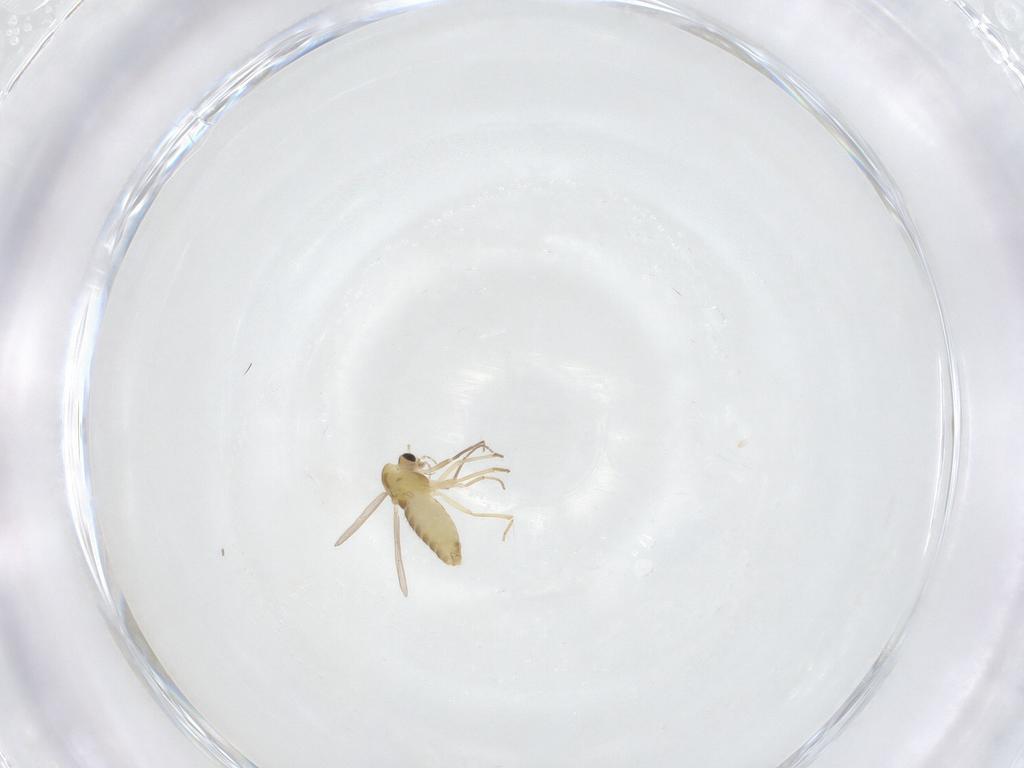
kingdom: Animalia
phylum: Arthropoda
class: Insecta
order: Diptera
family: Chironomidae
